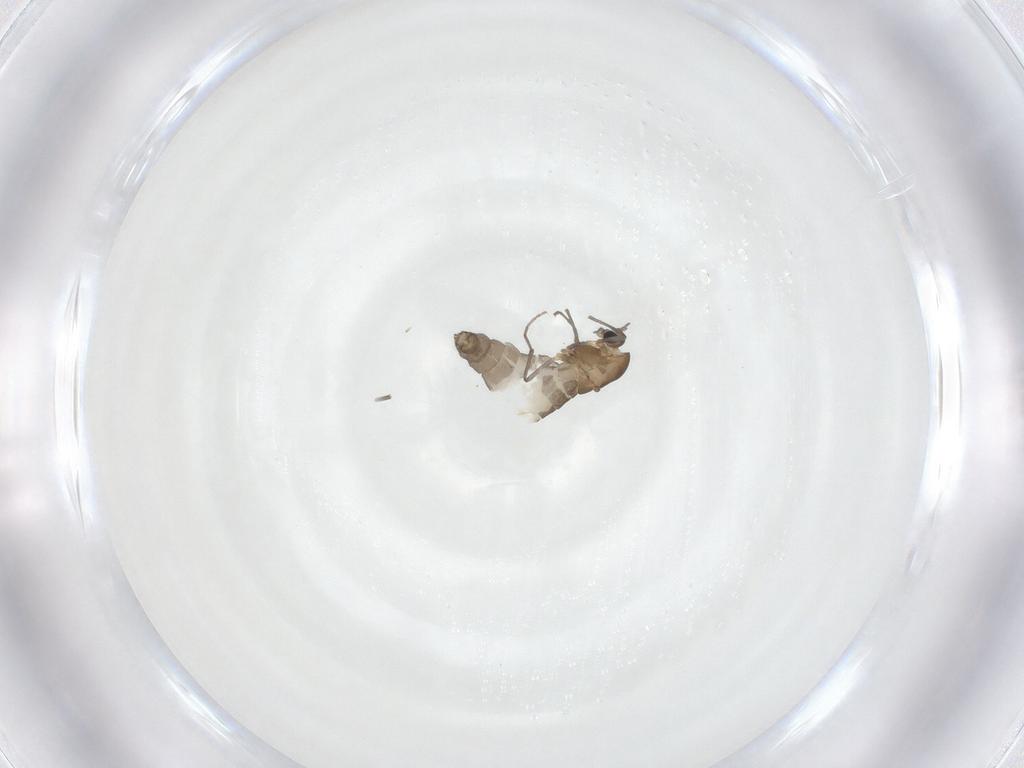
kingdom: Animalia
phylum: Arthropoda
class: Insecta
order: Diptera
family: Chironomidae
